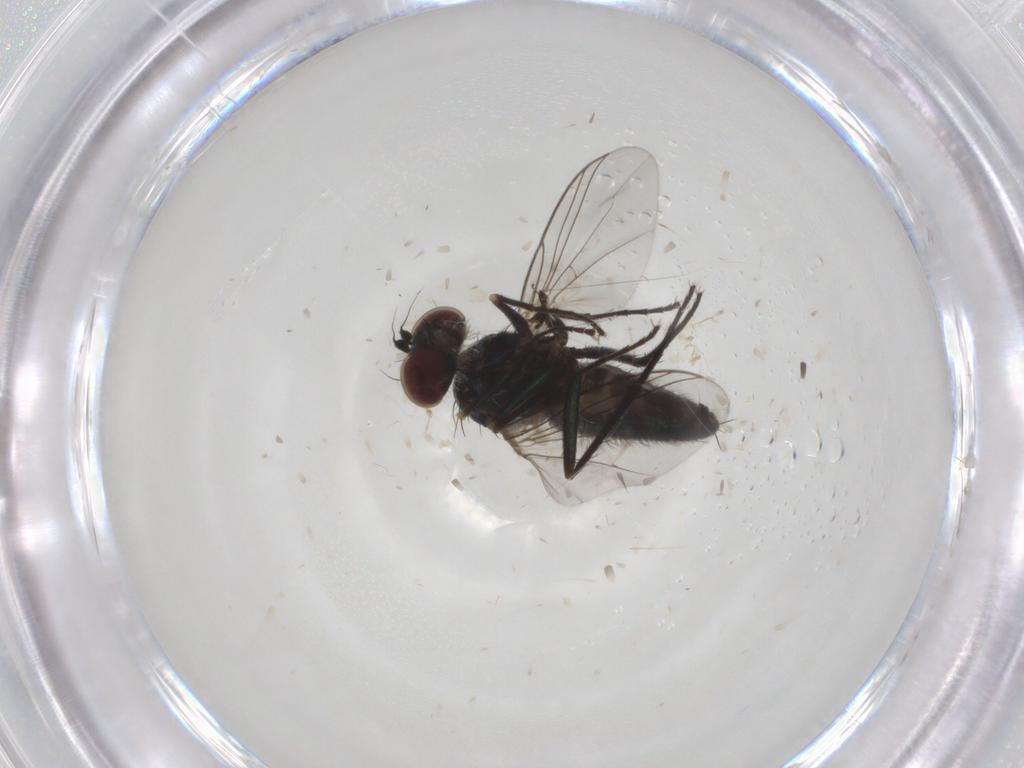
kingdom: Animalia
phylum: Arthropoda
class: Insecta
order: Diptera
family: Dolichopodidae
